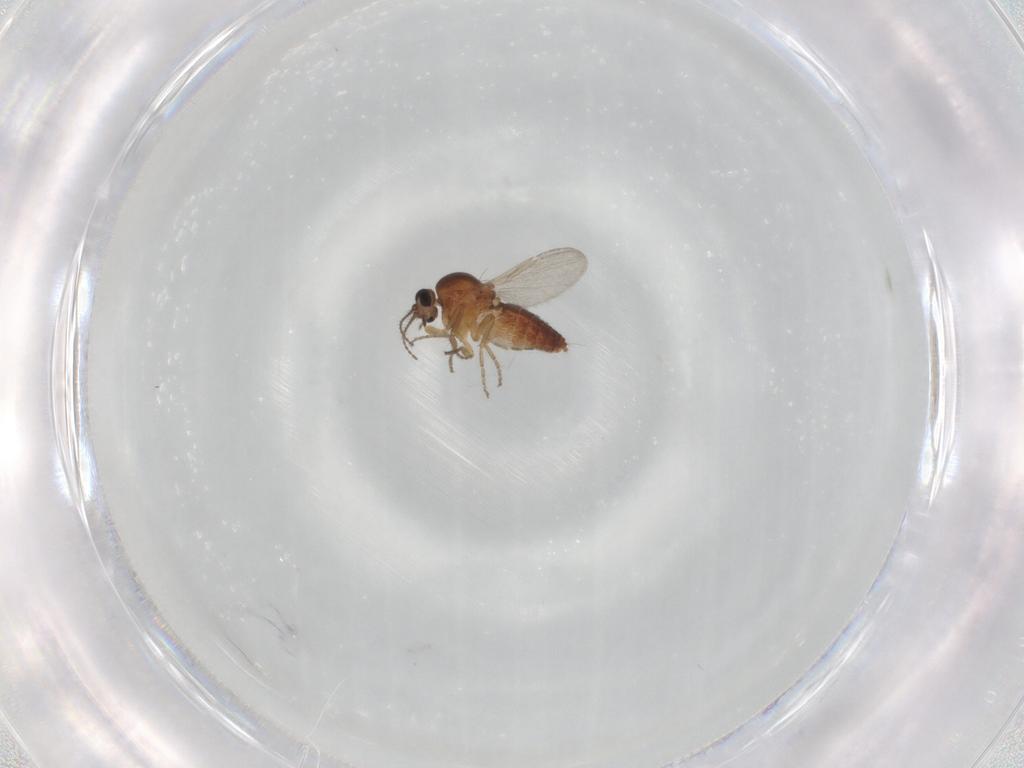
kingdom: Animalia
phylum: Arthropoda
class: Insecta
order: Diptera
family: Ceratopogonidae
